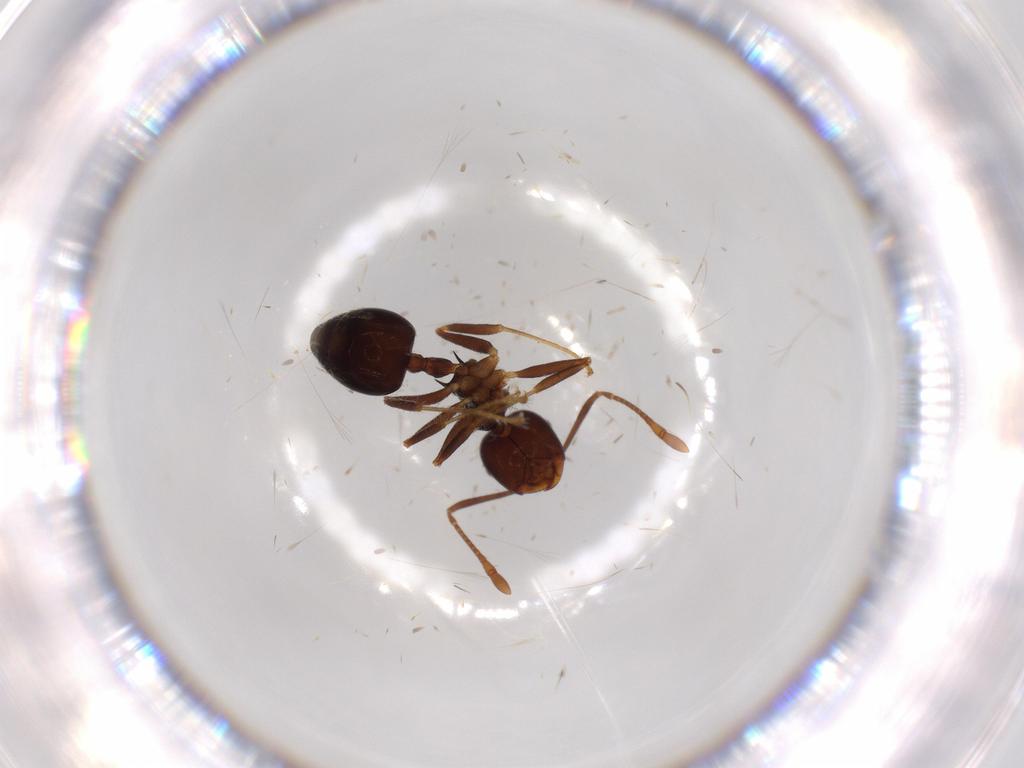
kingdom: Animalia
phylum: Arthropoda
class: Insecta
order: Hymenoptera
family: Formicidae
